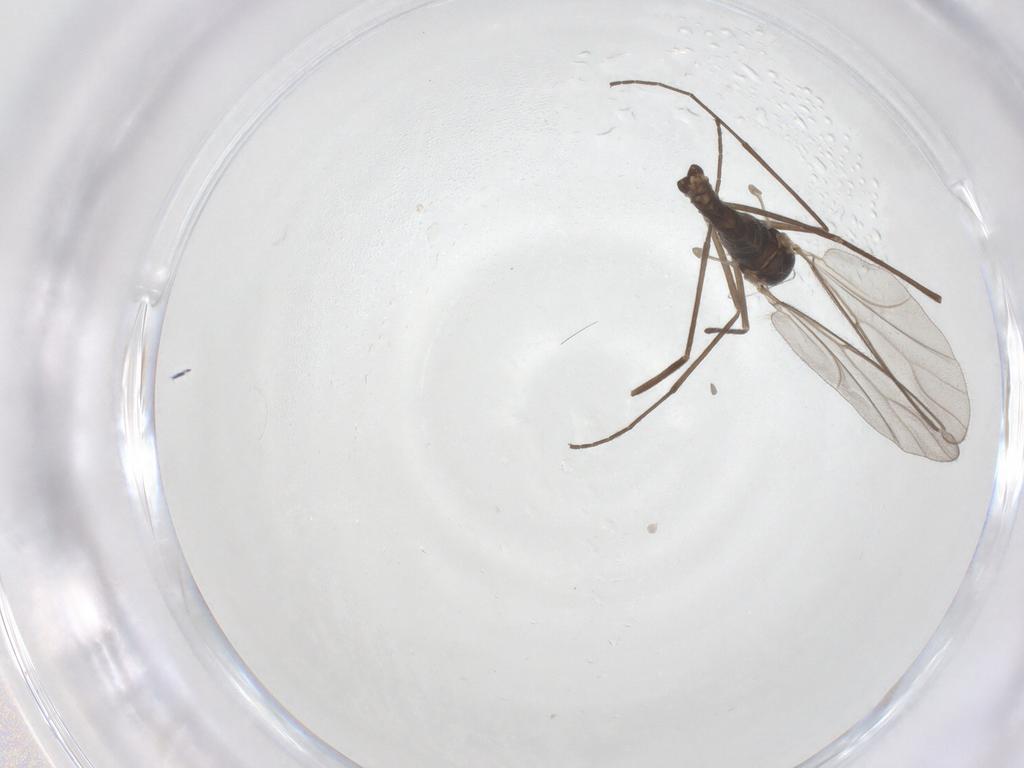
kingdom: Animalia
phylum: Arthropoda
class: Insecta
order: Diptera
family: Cecidomyiidae
